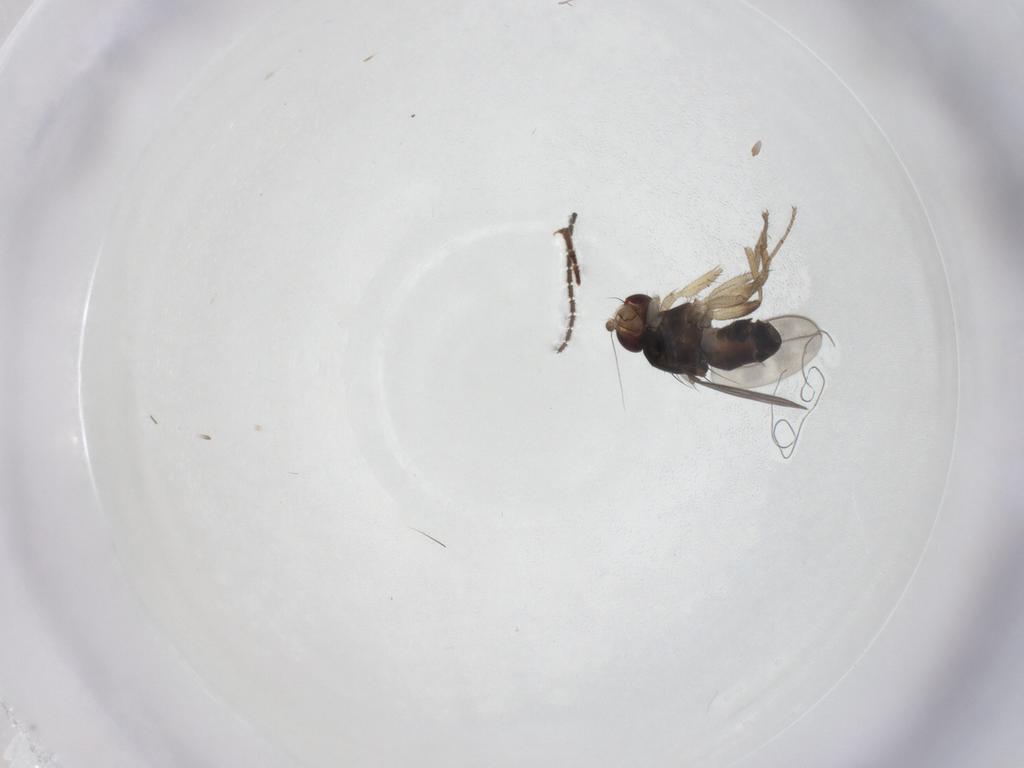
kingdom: Animalia
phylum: Arthropoda
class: Insecta
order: Diptera
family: Sphaeroceridae
